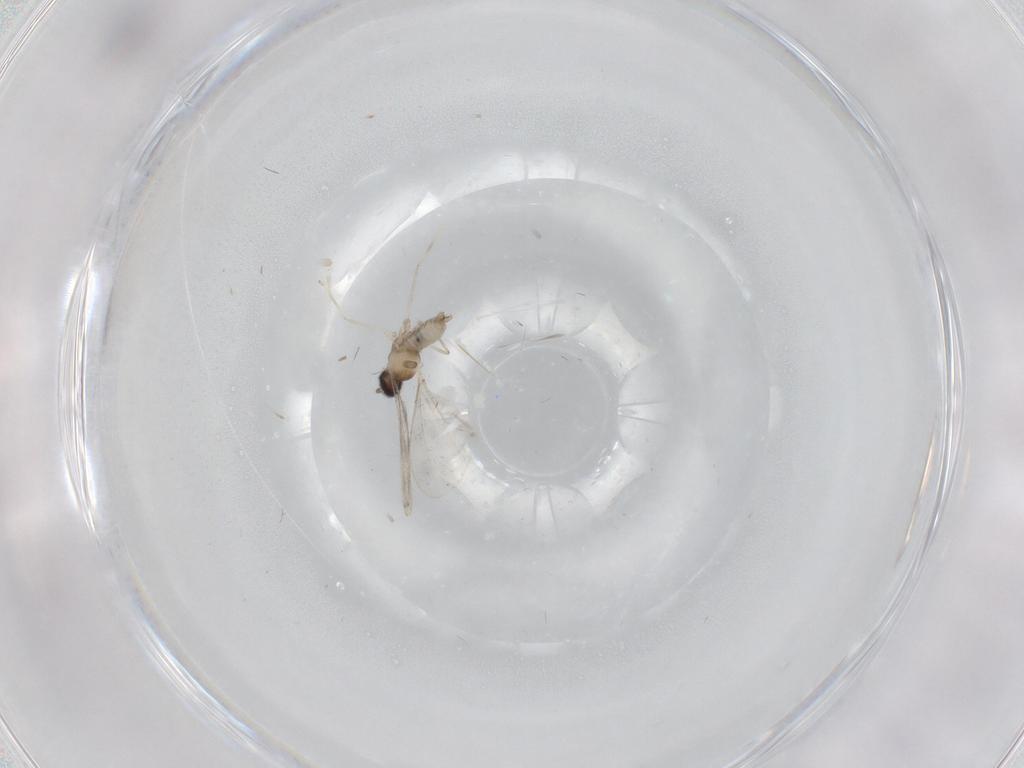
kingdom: Animalia
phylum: Arthropoda
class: Insecta
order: Diptera
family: Cecidomyiidae
